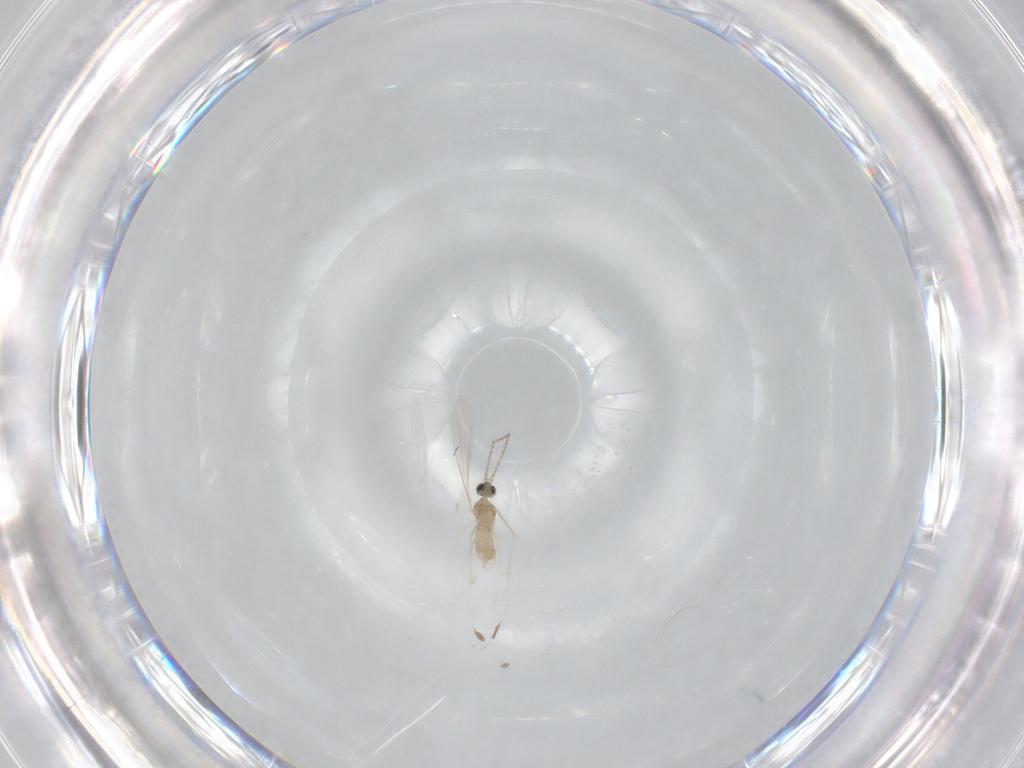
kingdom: Animalia
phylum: Arthropoda
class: Insecta
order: Diptera
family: Cecidomyiidae
